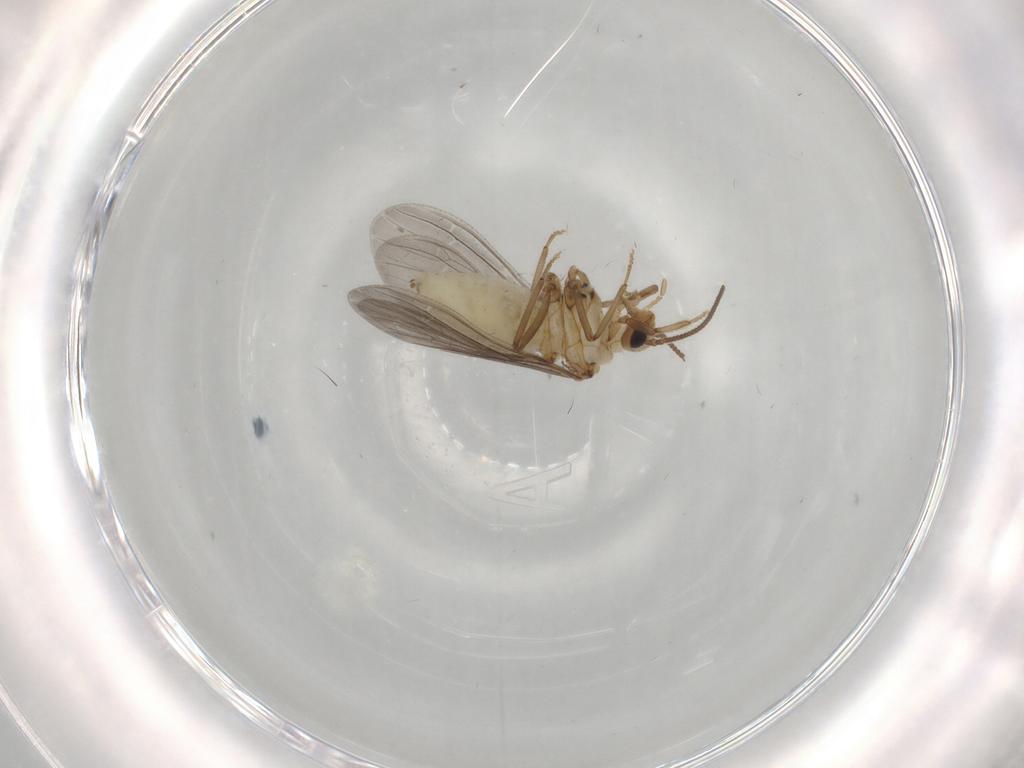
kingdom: Animalia
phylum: Arthropoda
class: Insecta
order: Neuroptera
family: Coniopterygidae
